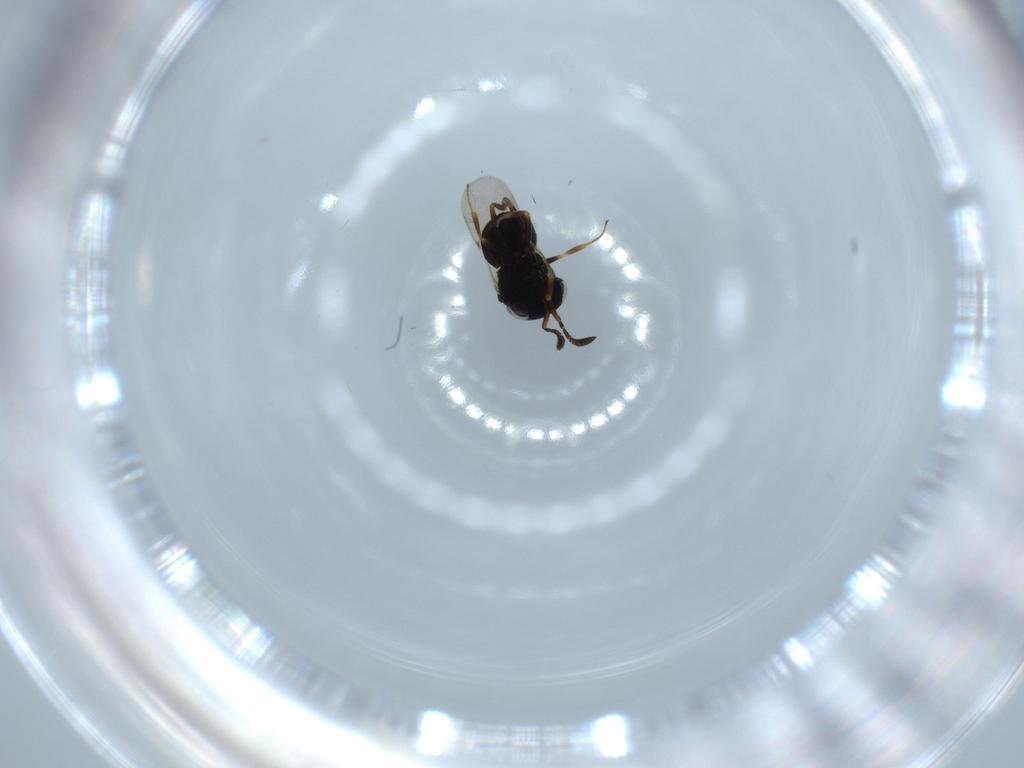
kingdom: Animalia
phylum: Arthropoda
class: Insecta
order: Hymenoptera
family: Scelionidae
